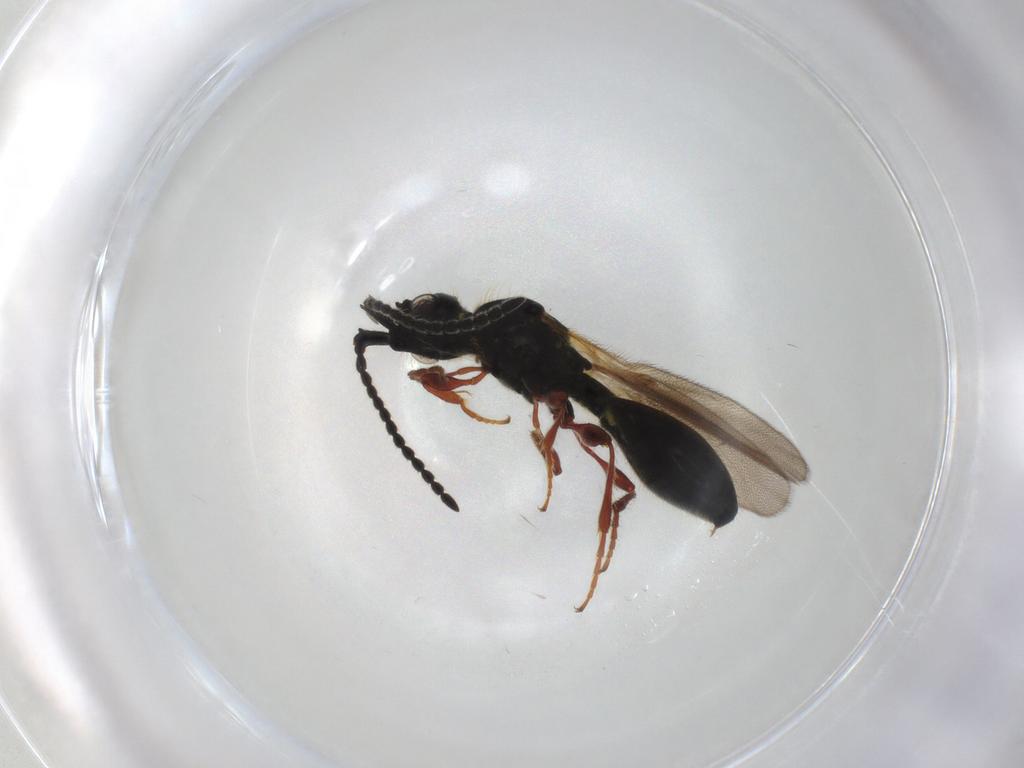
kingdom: Animalia
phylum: Arthropoda
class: Insecta
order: Hymenoptera
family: Diapriidae
